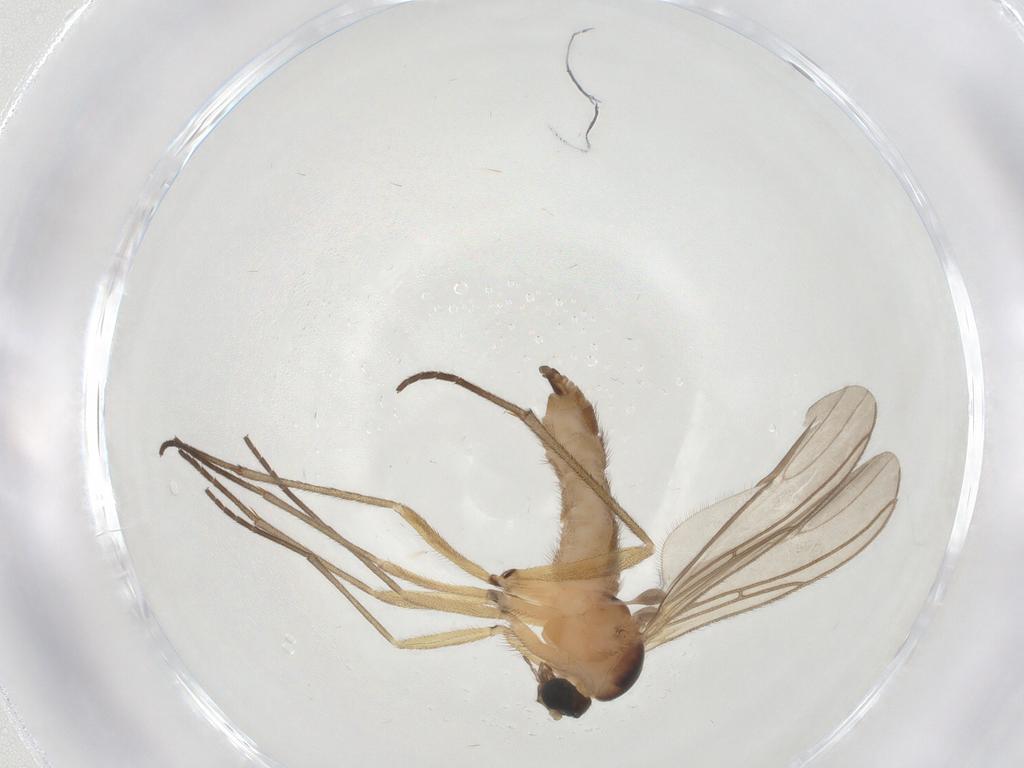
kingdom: Animalia
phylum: Arthropoda
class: Insecta
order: Diptera
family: Sciaridae
